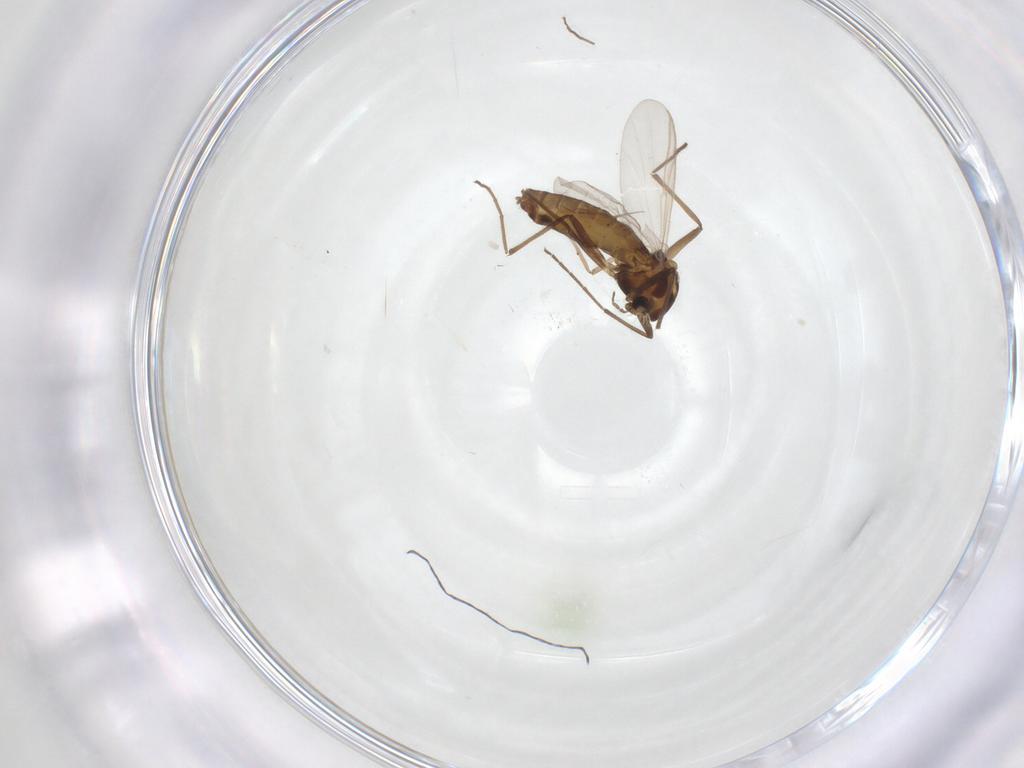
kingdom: Animalia
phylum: Arthropoda
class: Insecta
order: Diptera
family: Chironomidae
